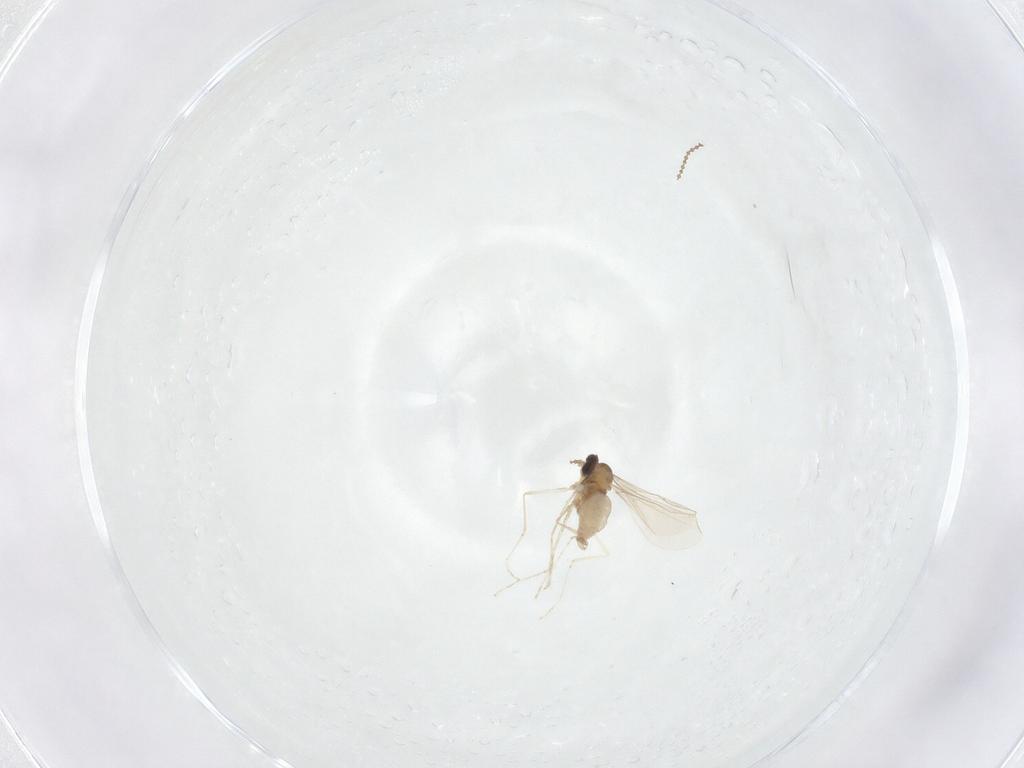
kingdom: Animalia
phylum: Arthropoda
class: Insecta
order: Diptera
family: Cecidomyiidae
